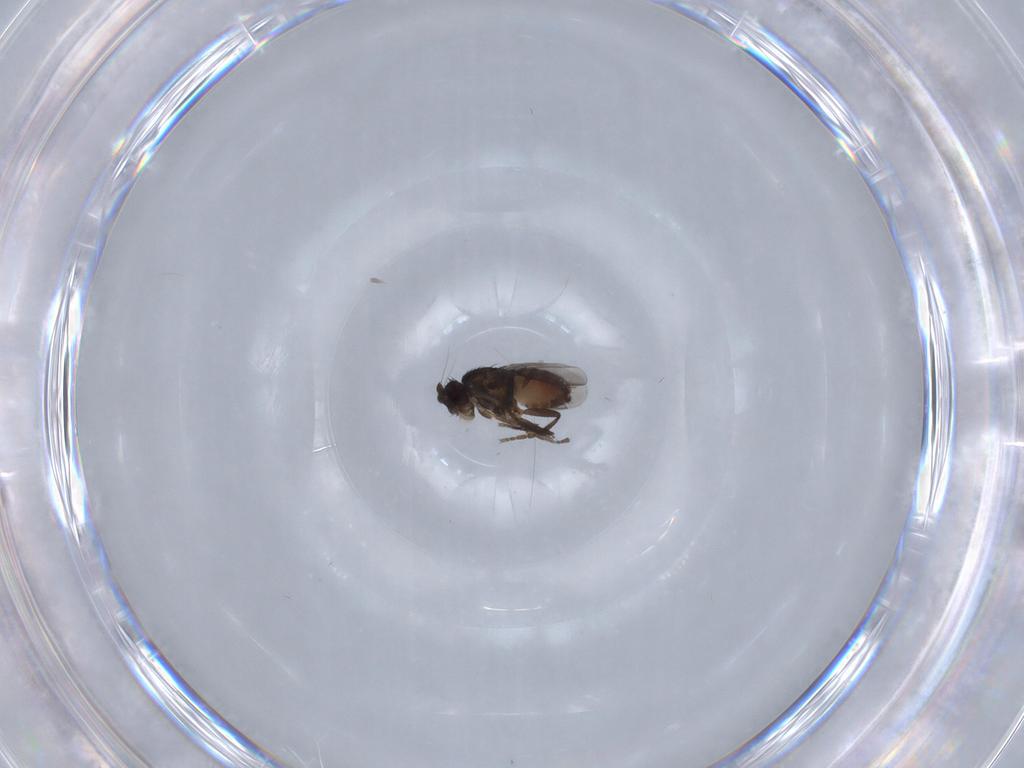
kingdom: Animalia
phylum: Arthropoda
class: Insecta
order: Diptera
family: Sphaeroceridae
